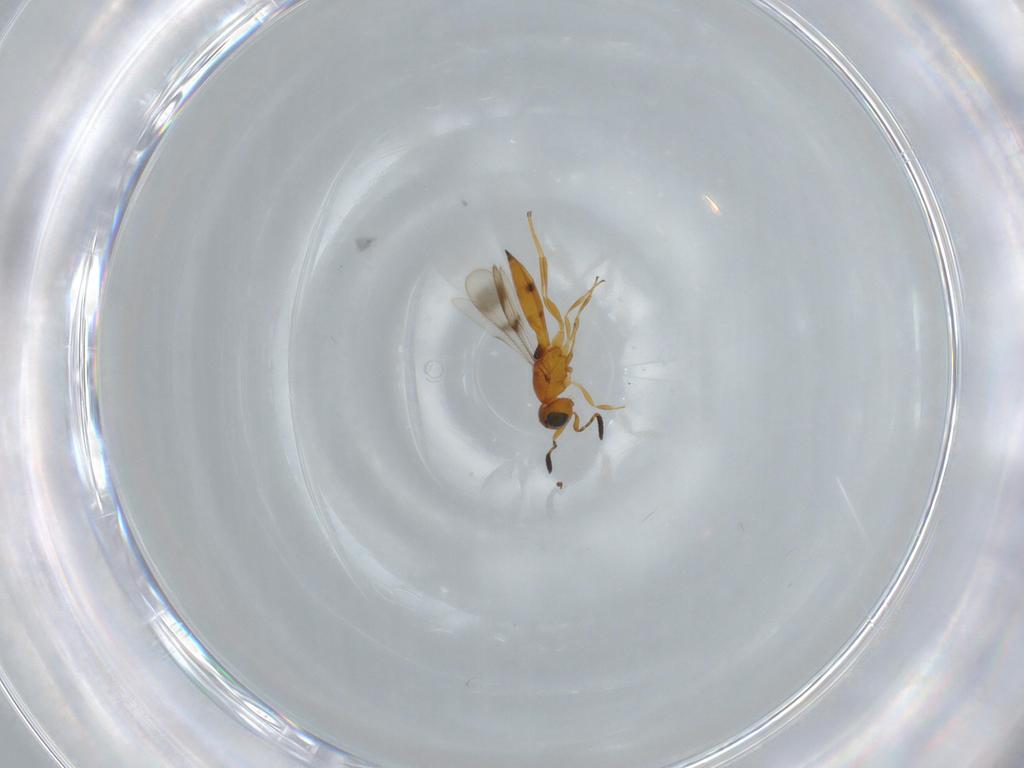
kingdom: Animalia
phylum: Arthropoda
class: Insecta
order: Hymenoptera
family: Scelionidae
